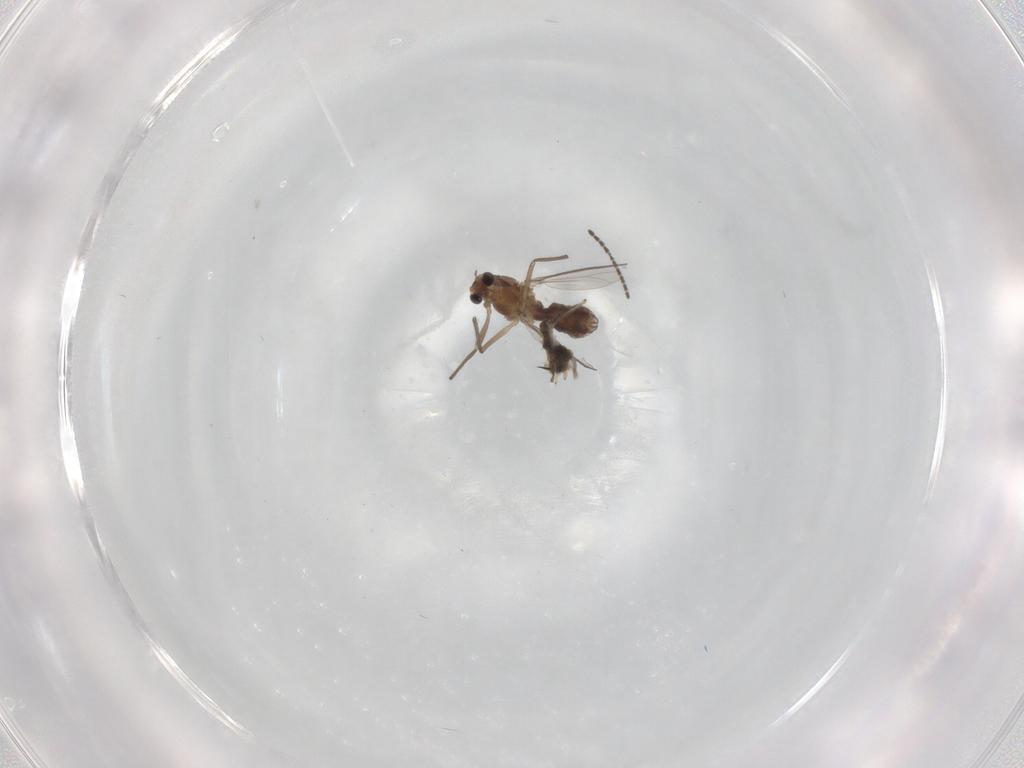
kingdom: Animalia
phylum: Arthropoda
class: Insecta
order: Diptera
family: Chironomidae
